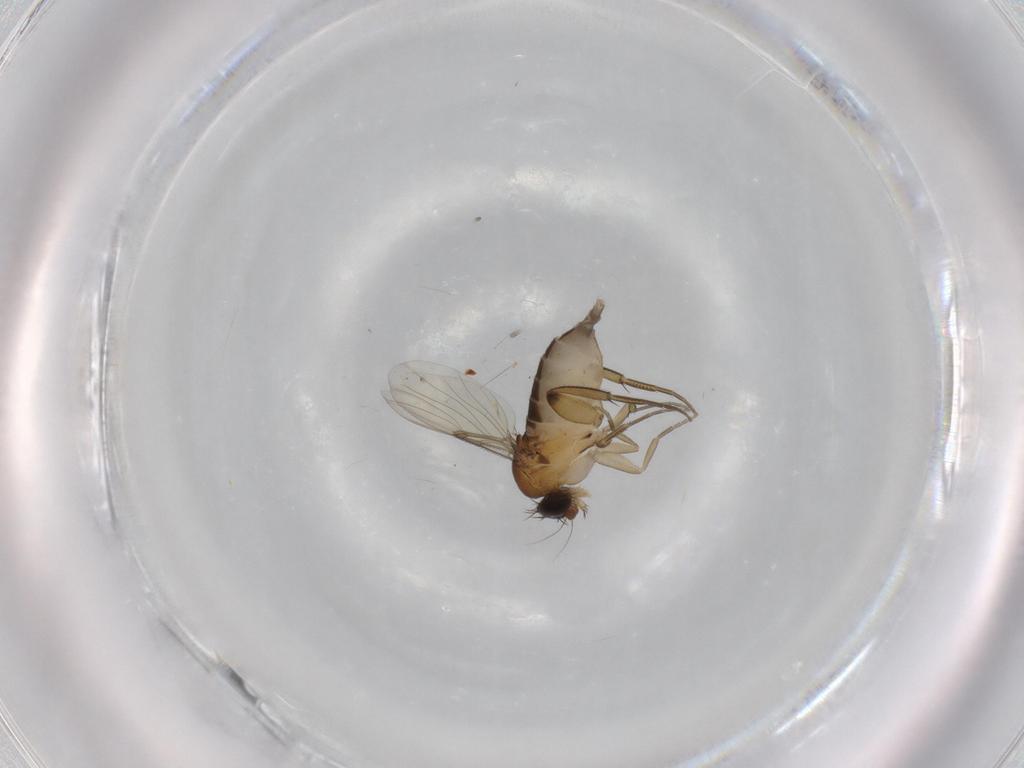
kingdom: Animalia
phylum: Arthropoda
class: Insecta
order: Diptera
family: Phoridae
